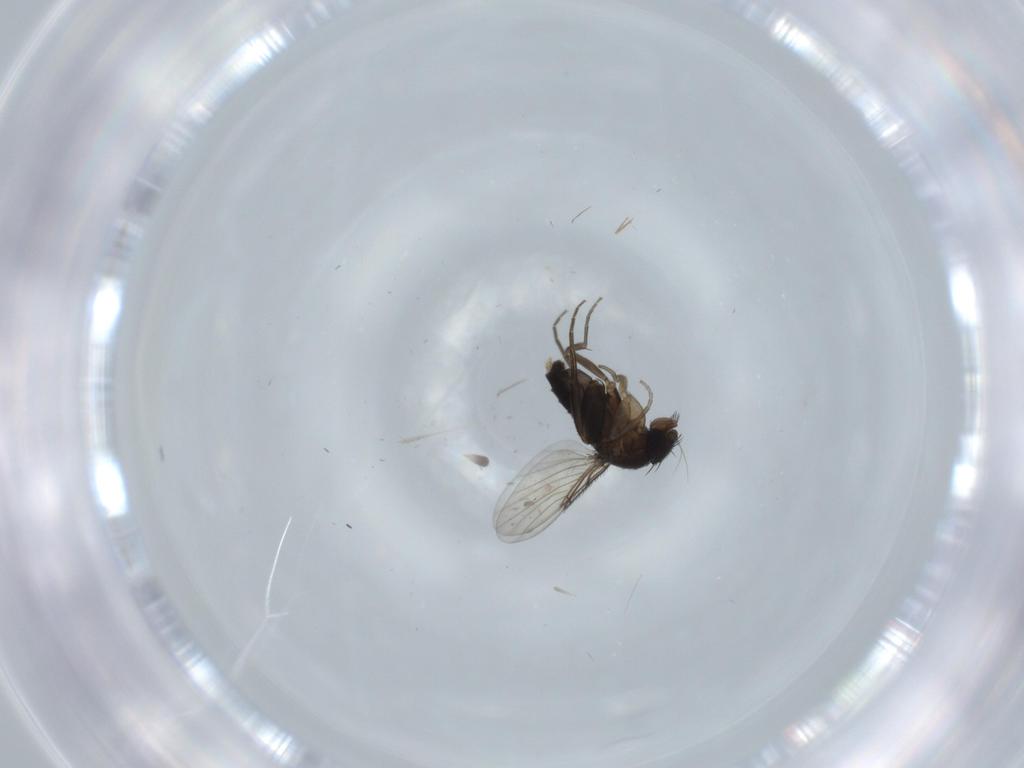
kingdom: Animalia
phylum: Arthropoda
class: Insecta
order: Diptera
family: Phoridae
